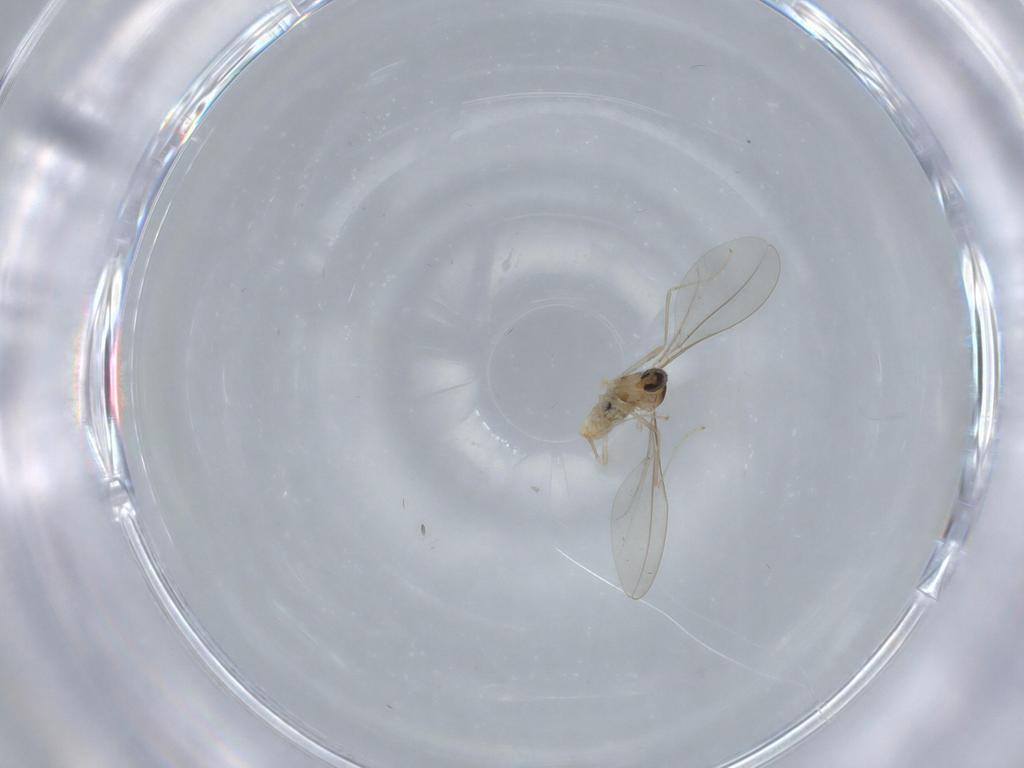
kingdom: Animalia
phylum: Arthropoda
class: Insecta
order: Diptera
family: Cecidomyiidae
